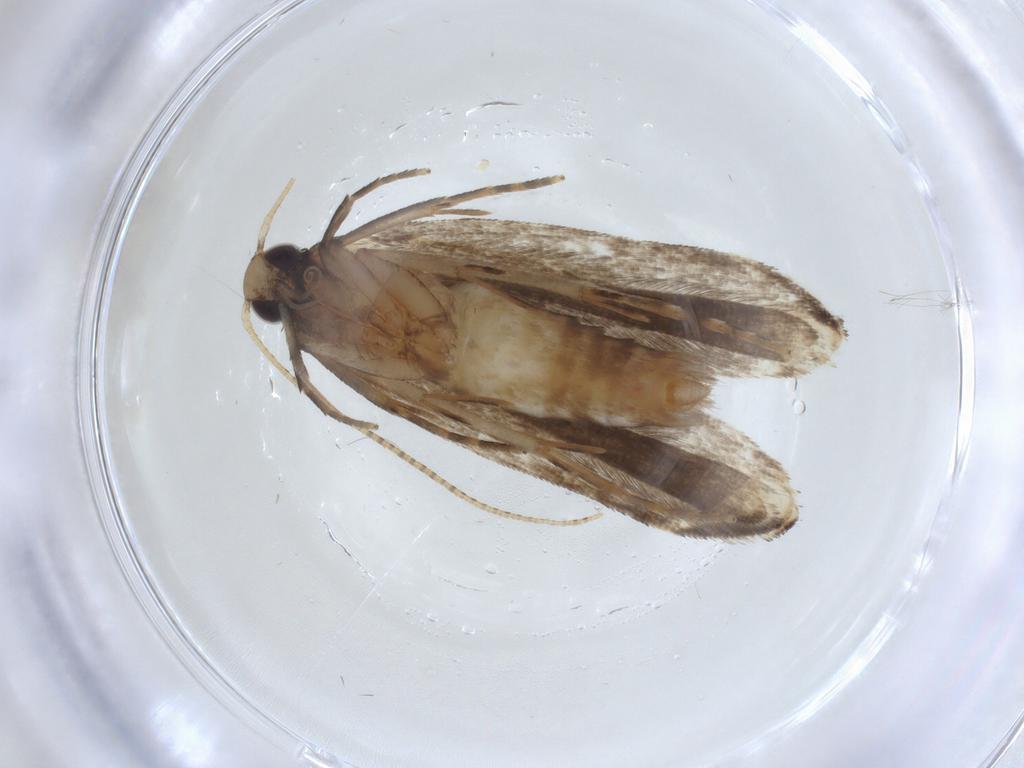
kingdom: Animalia
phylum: Arthropoda
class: Insecta
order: Lepidoptera
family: Gelechiidae
